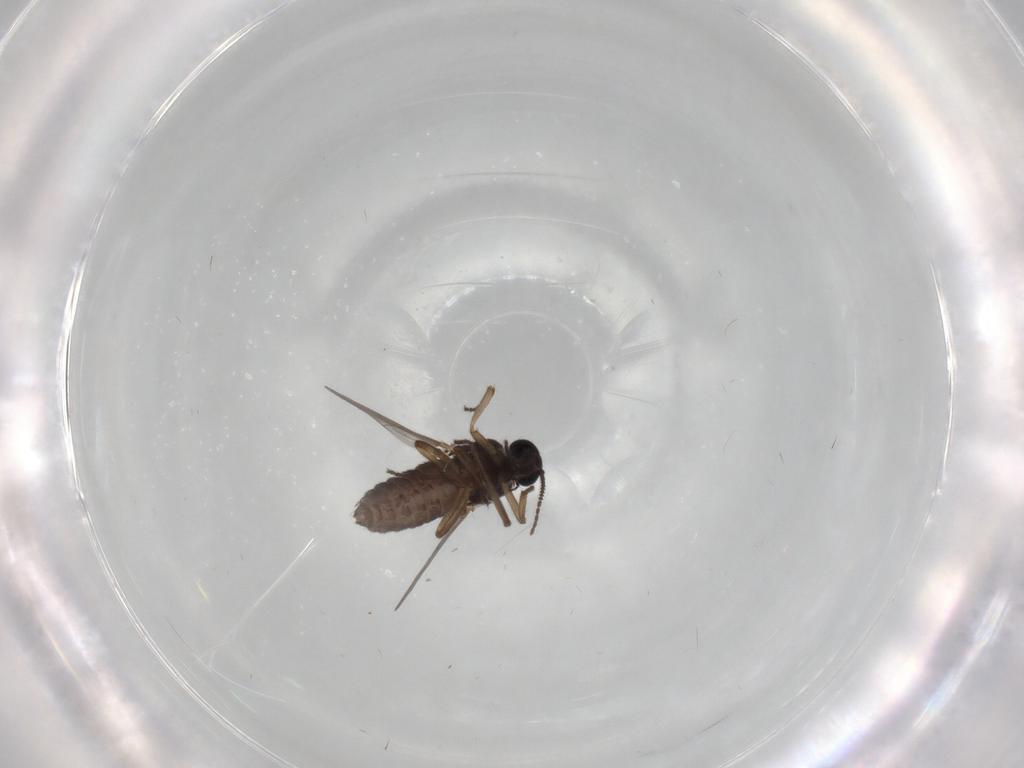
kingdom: Animalia
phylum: Arthropoda
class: Insecta
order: Diptera
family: Ceratopogonidae
